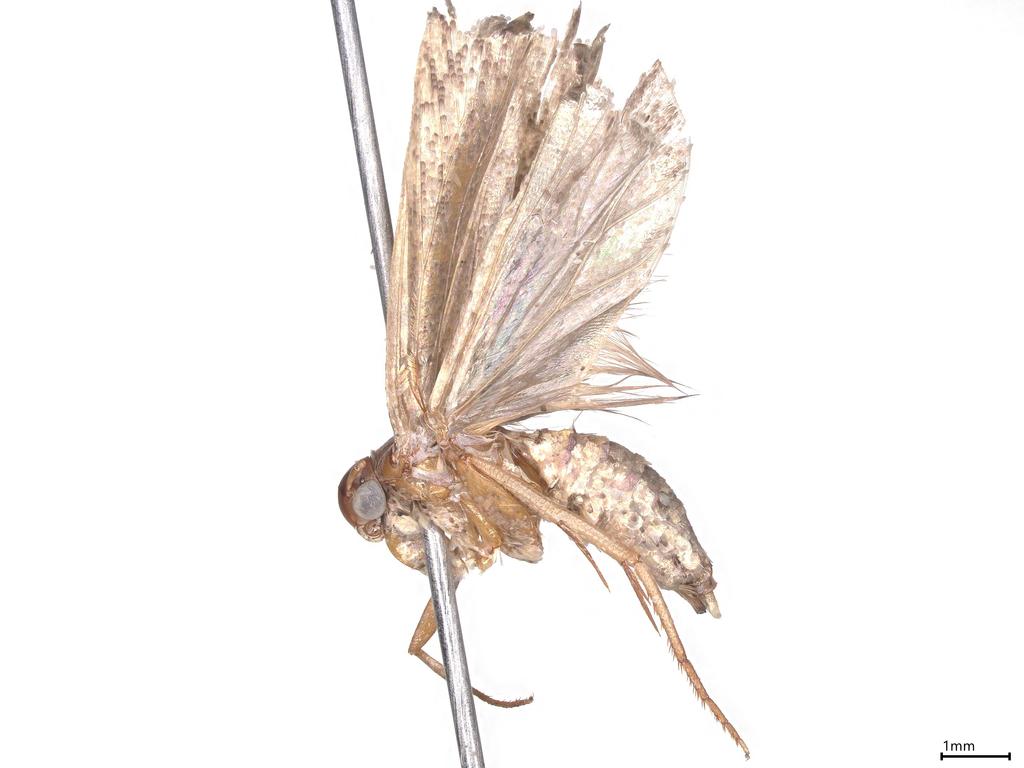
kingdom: Animalia
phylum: Arthropoda
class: Insecta
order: Diptera
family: Dolichopodidae
